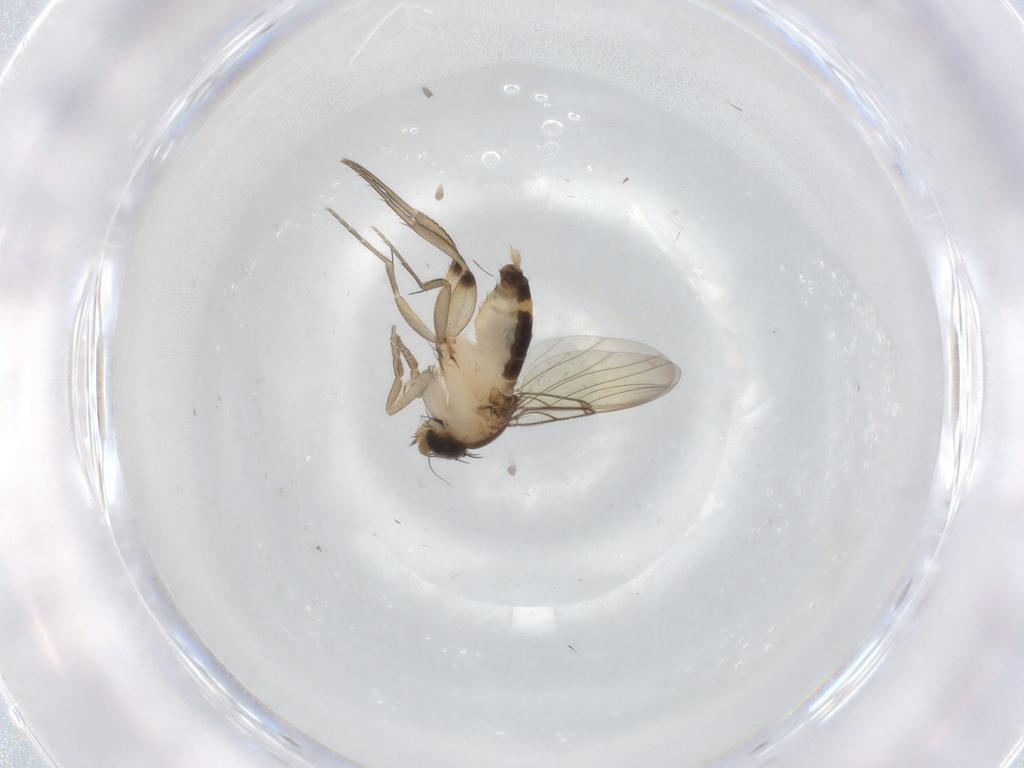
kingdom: Animalia
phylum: Arthropoda
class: Insecta
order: Diptera
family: Phoridae
